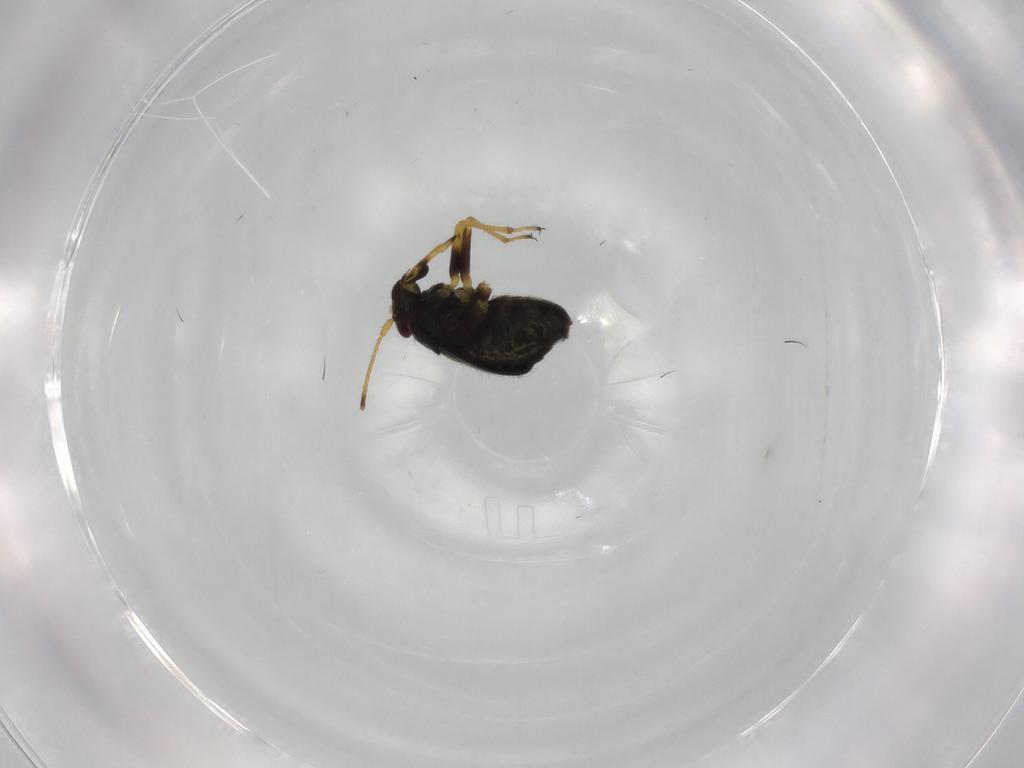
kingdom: Animalia
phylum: Arthropoda
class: Insecta
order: Hemiptera
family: Miridae
